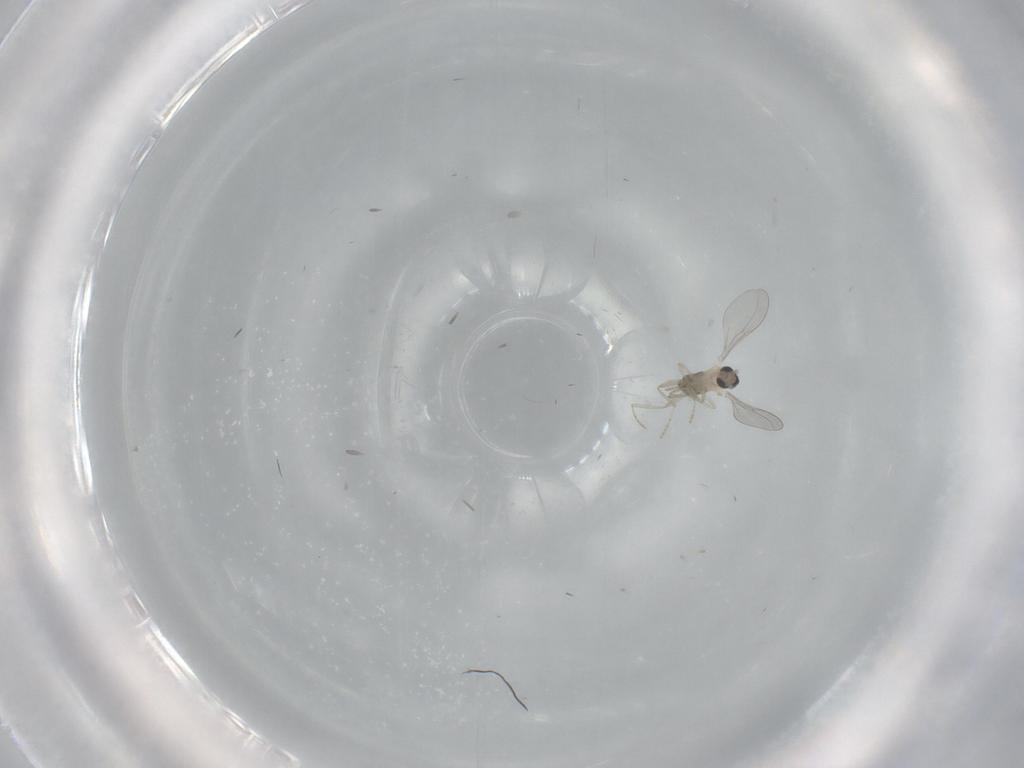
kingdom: Animalia
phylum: Arthropoda
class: Insecta
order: Diptera
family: Cecidomyiidae
